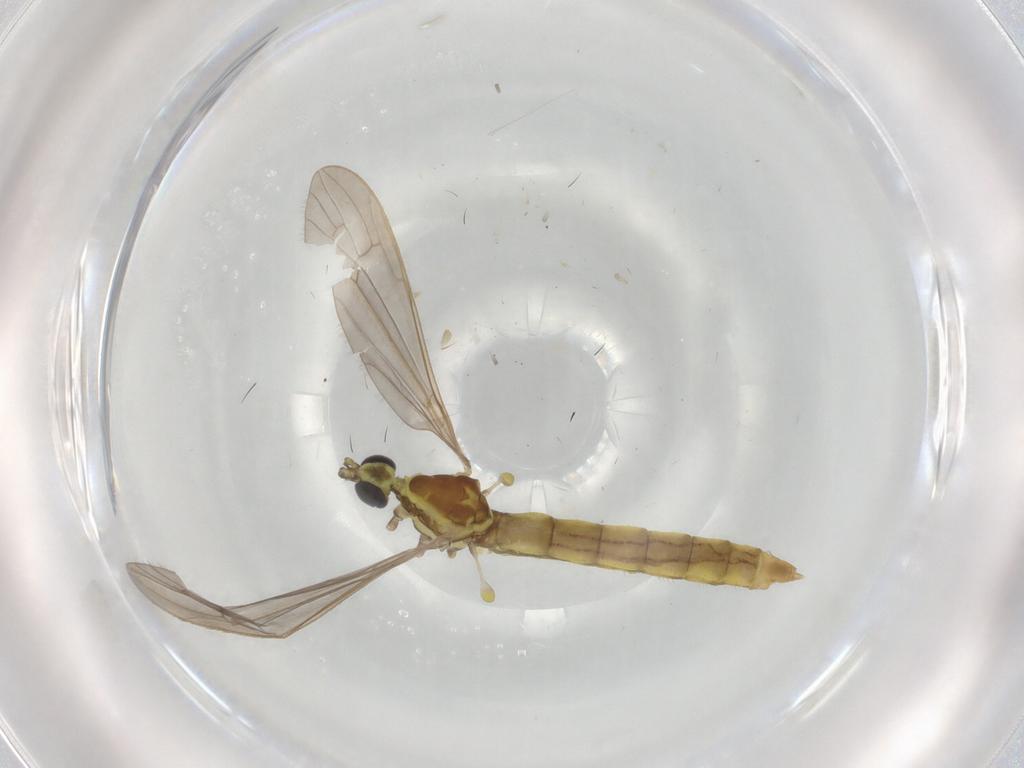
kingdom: Animalia
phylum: Arthropoda
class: Insecta
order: Diptera
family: Limoniidae
